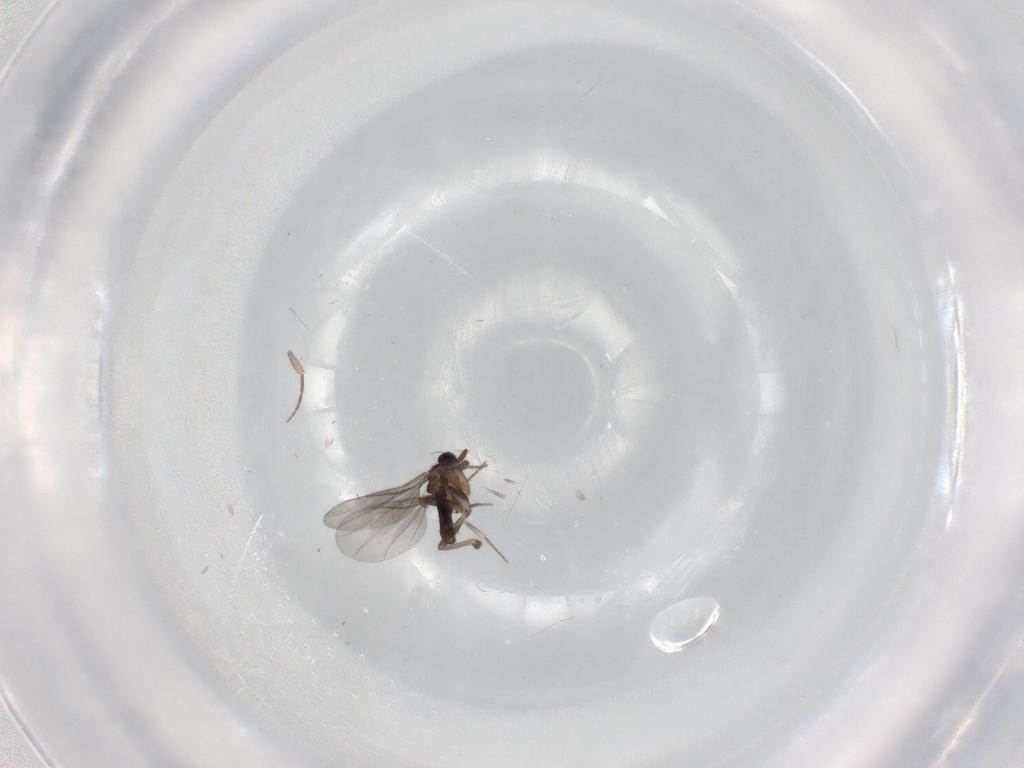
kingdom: Animalia
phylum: Arthropoda
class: Insecta
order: Diptera
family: Phoridae
